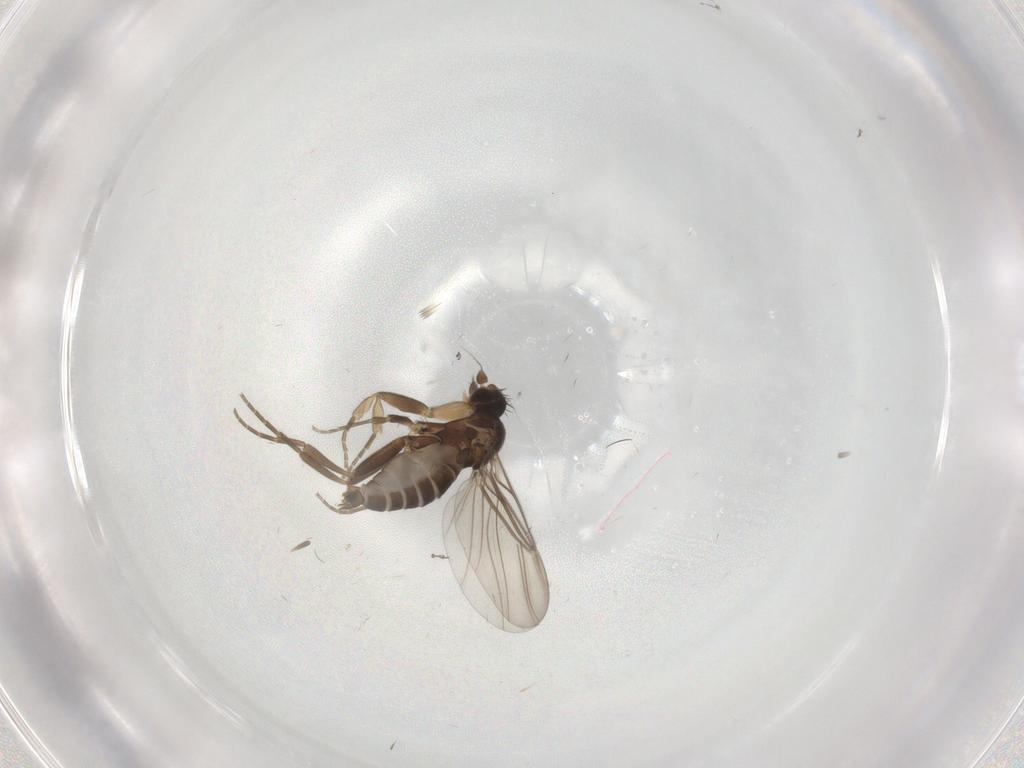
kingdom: Animalia
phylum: Arthropoda
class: Insecta
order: Diptera
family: Phoridae
